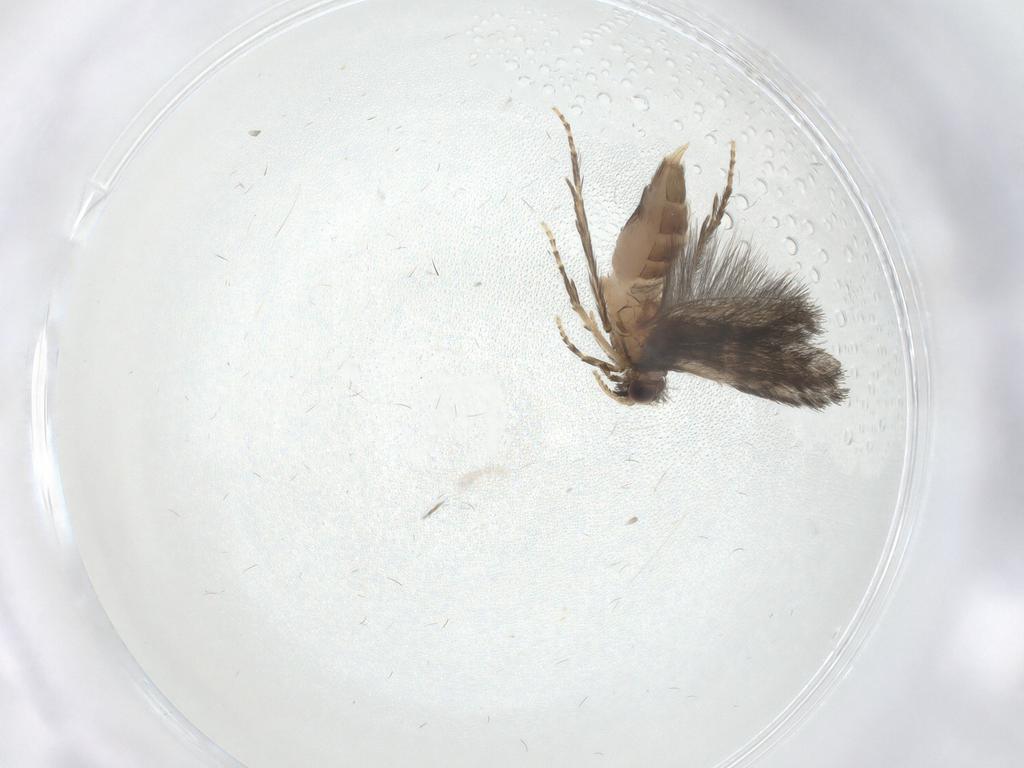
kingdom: Animalia
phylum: Arthropoda
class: Insecta
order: Trichoptera
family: Hydroptilidae
